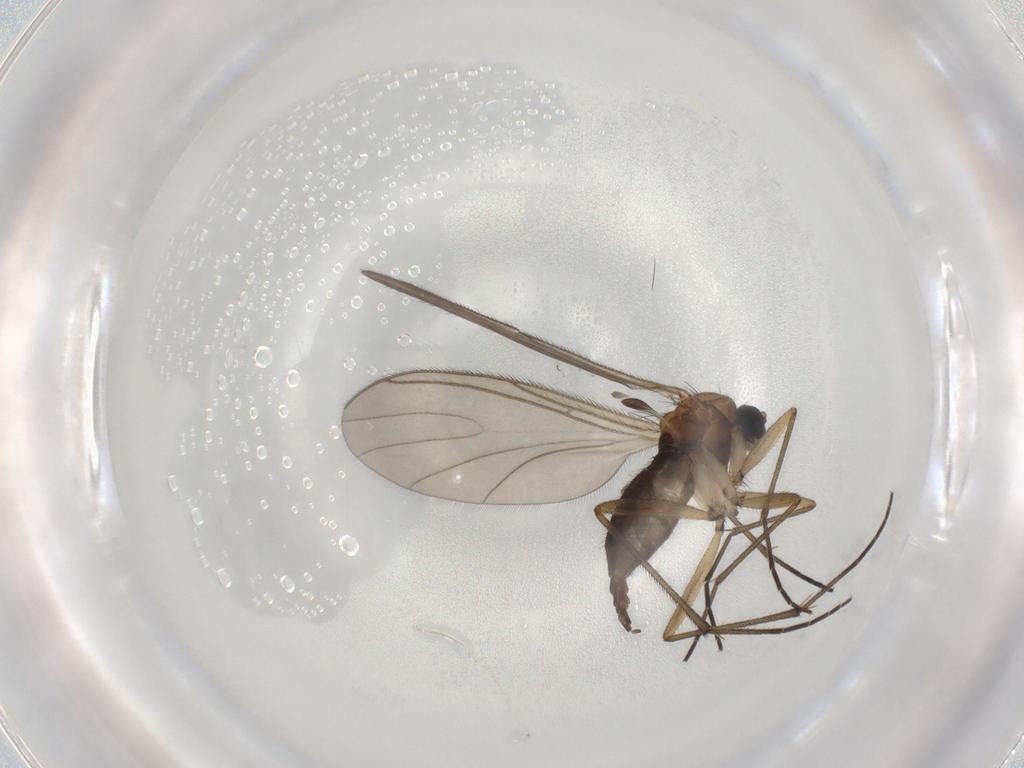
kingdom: Animalia
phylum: Arthropoda
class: Insecta
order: Diptera
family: Sciaridae
